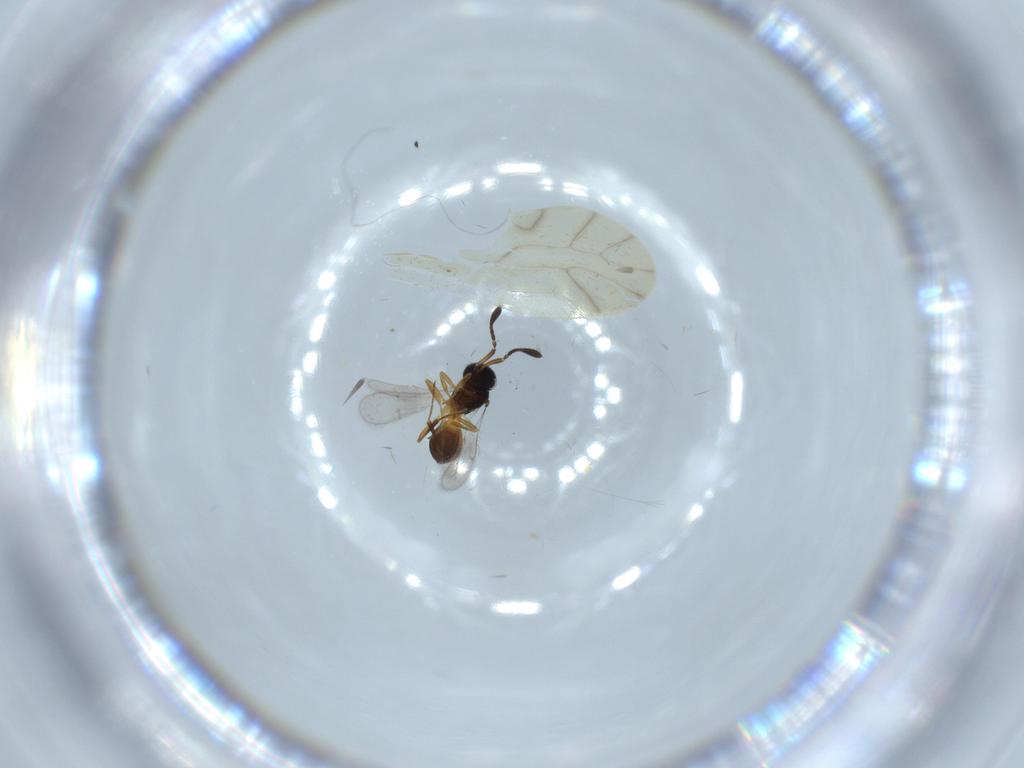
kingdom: Animalia
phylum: Arthropoda
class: Insecta
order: Hymenoptera
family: Scelionidae
